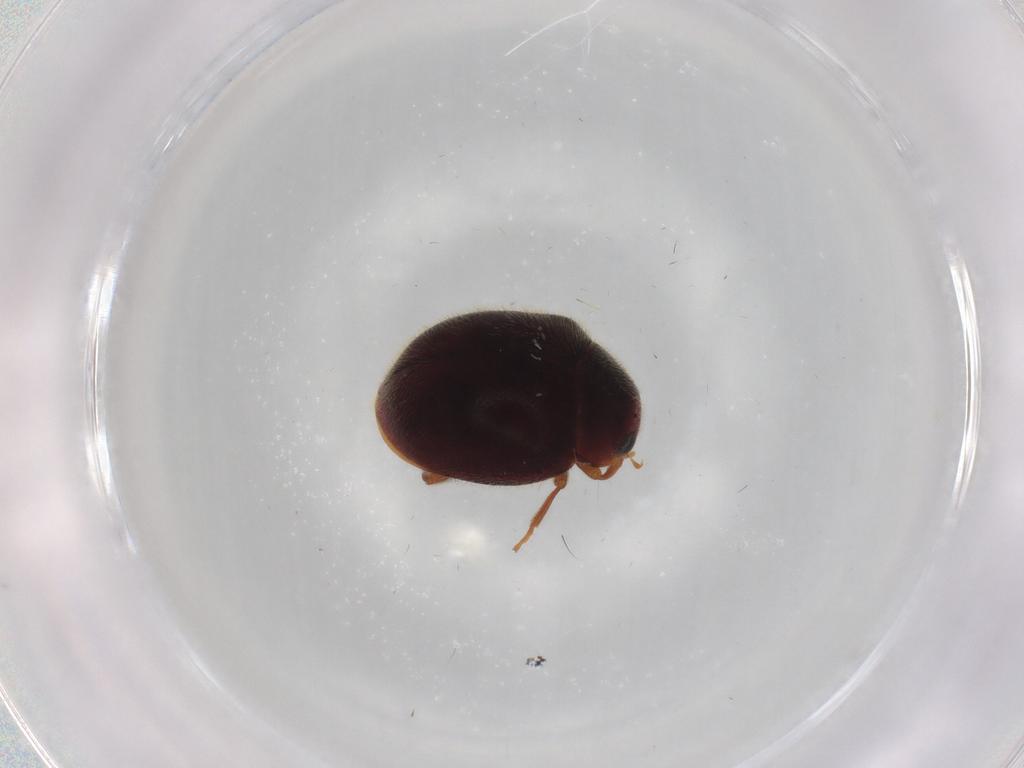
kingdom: Animalia
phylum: Arthropoda
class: Insecta
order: Coleoptera
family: Coccinellidae
